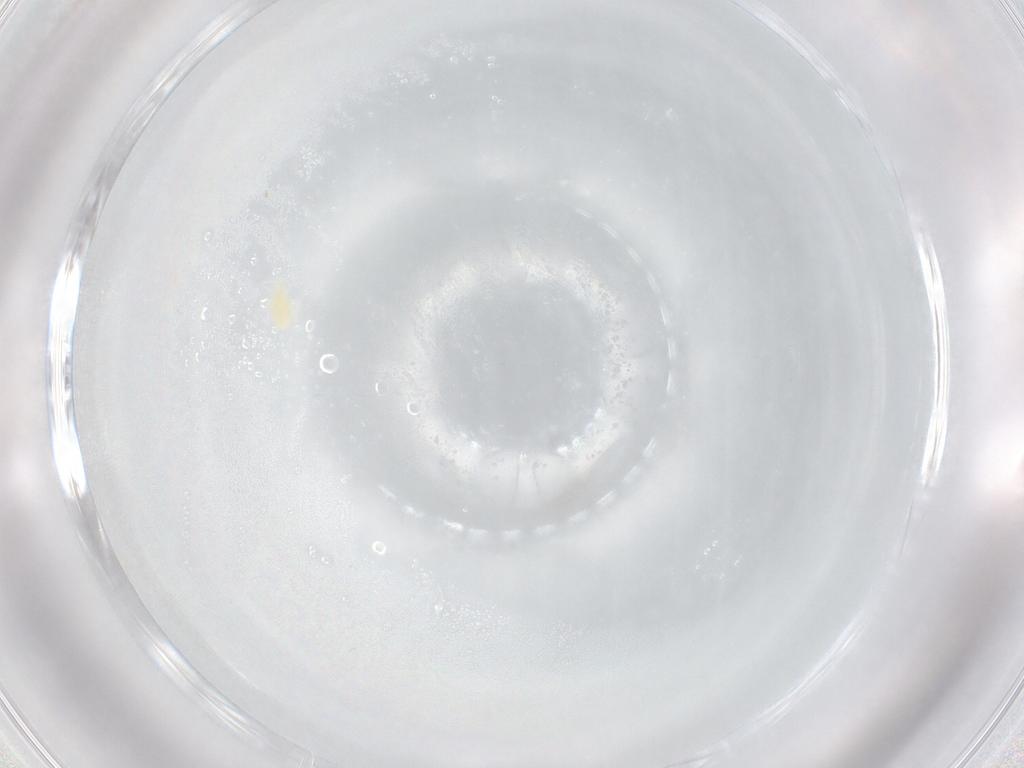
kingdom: Animalia
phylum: Arthropoda
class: Arachnida
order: Trombidiformes
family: Eupodidae
